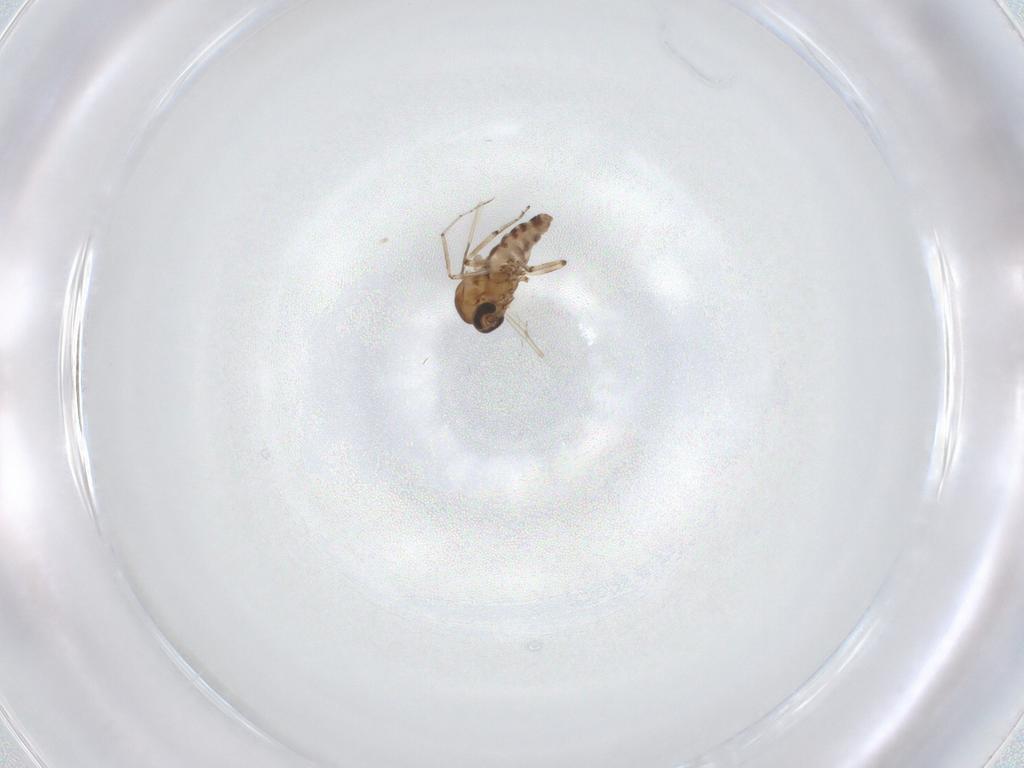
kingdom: Animalia
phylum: Arthropoda
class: Insecta
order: Diptera
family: Ceratopogonidae
